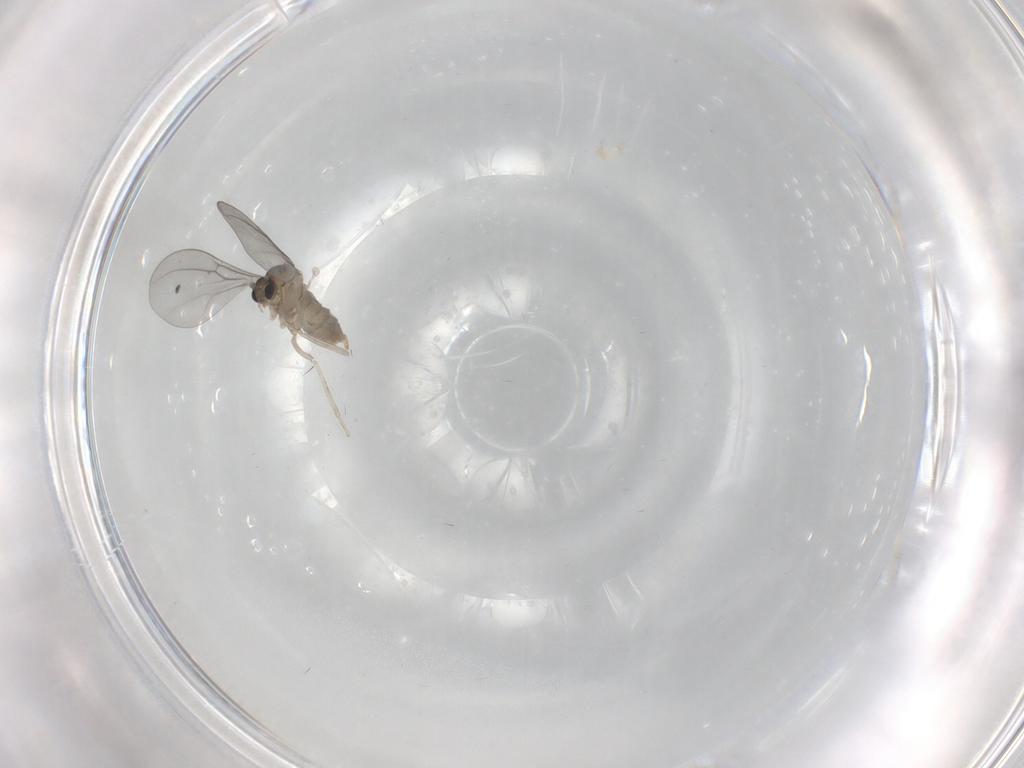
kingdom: Animalia
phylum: Arthropoda
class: Insecta
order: Diptera
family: Cecidomyiidae
